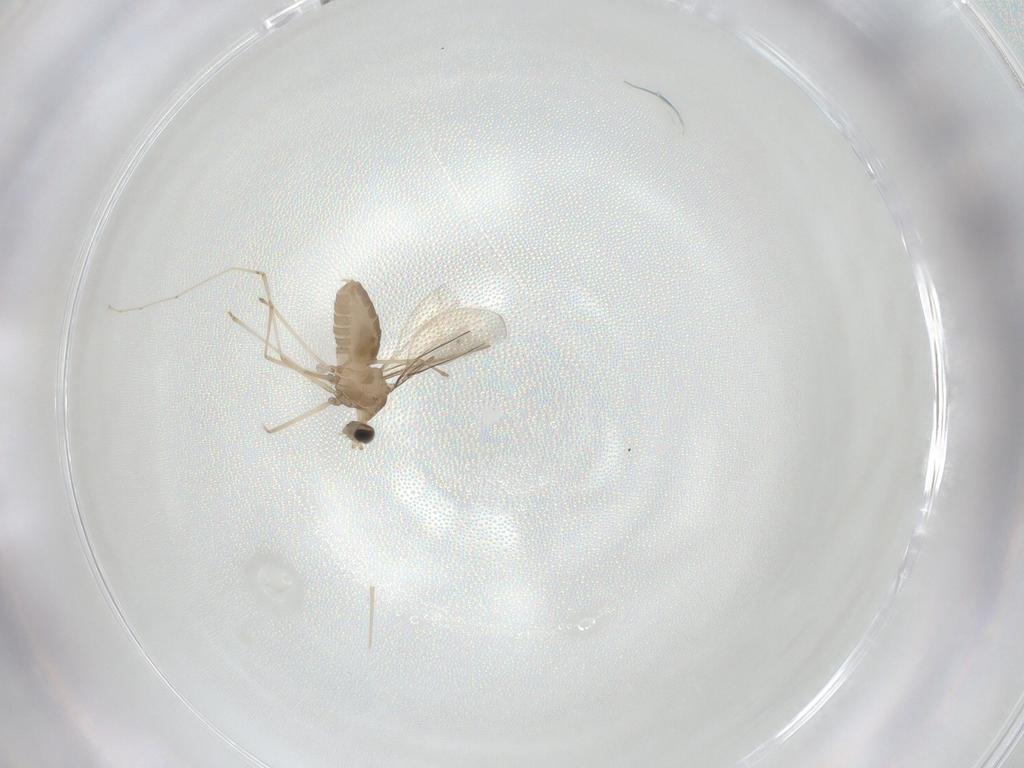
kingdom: Animalia
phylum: Arthropoda
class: Insecta
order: Diptera
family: Cecidomyiidae
